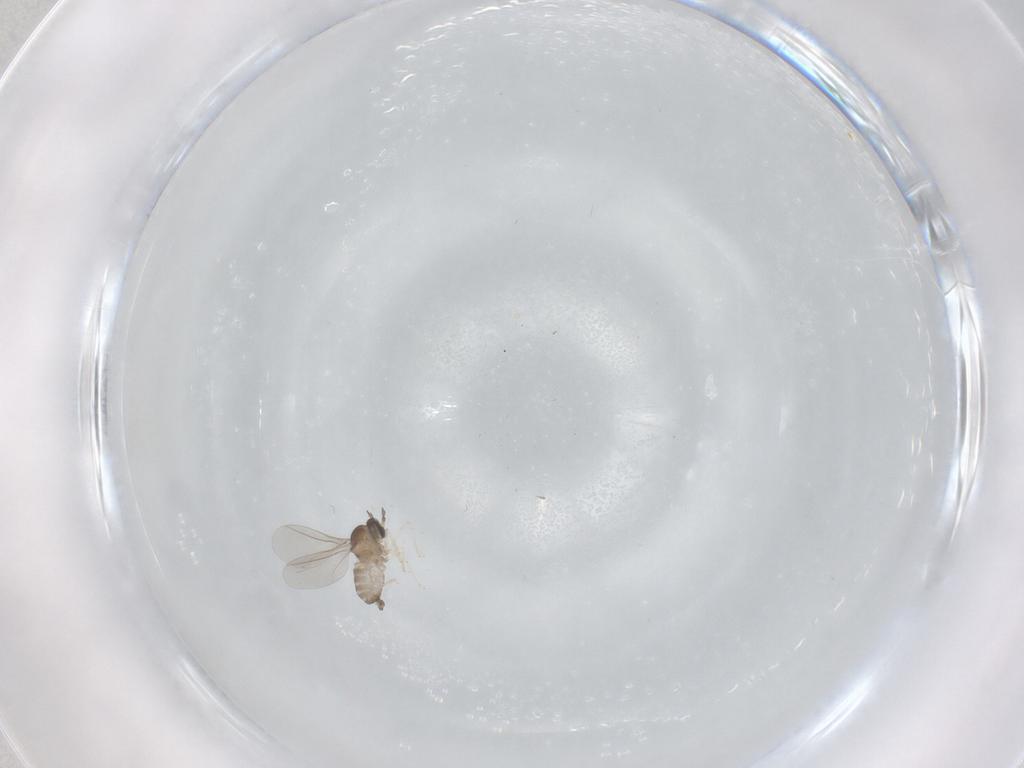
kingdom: Animalia
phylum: Arthropoda
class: Insecta
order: Diptera
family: Cecidomyiidae
